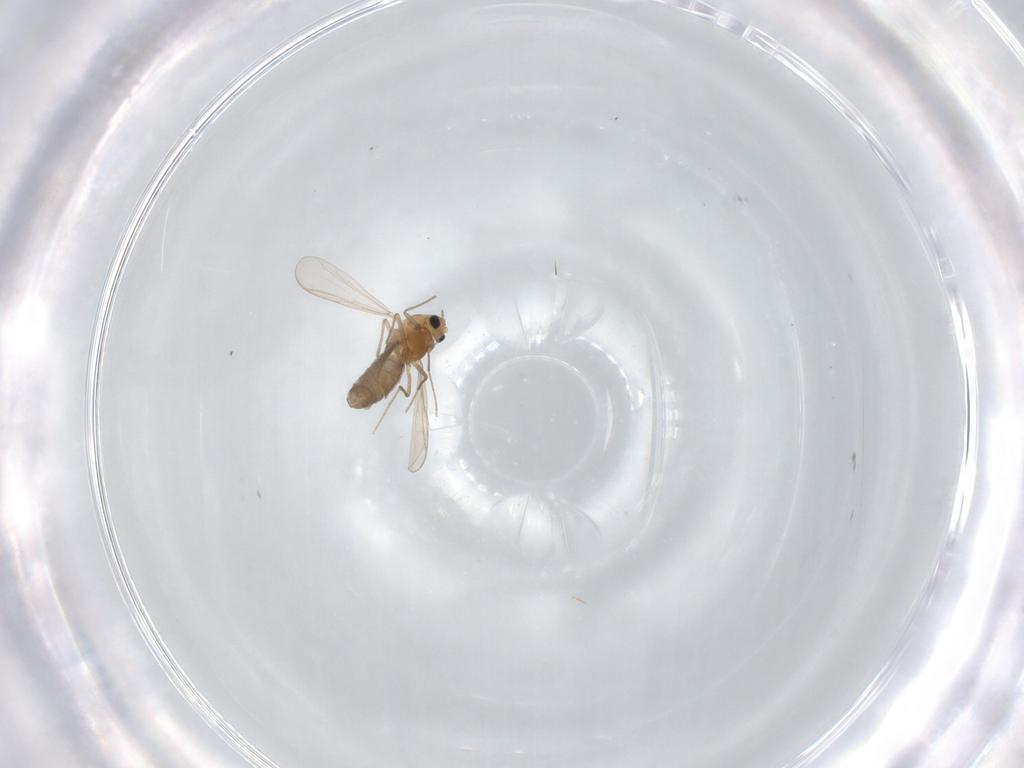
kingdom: Animalia
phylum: Arthropoda
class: Insecta
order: Diptera
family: Chironomidae
